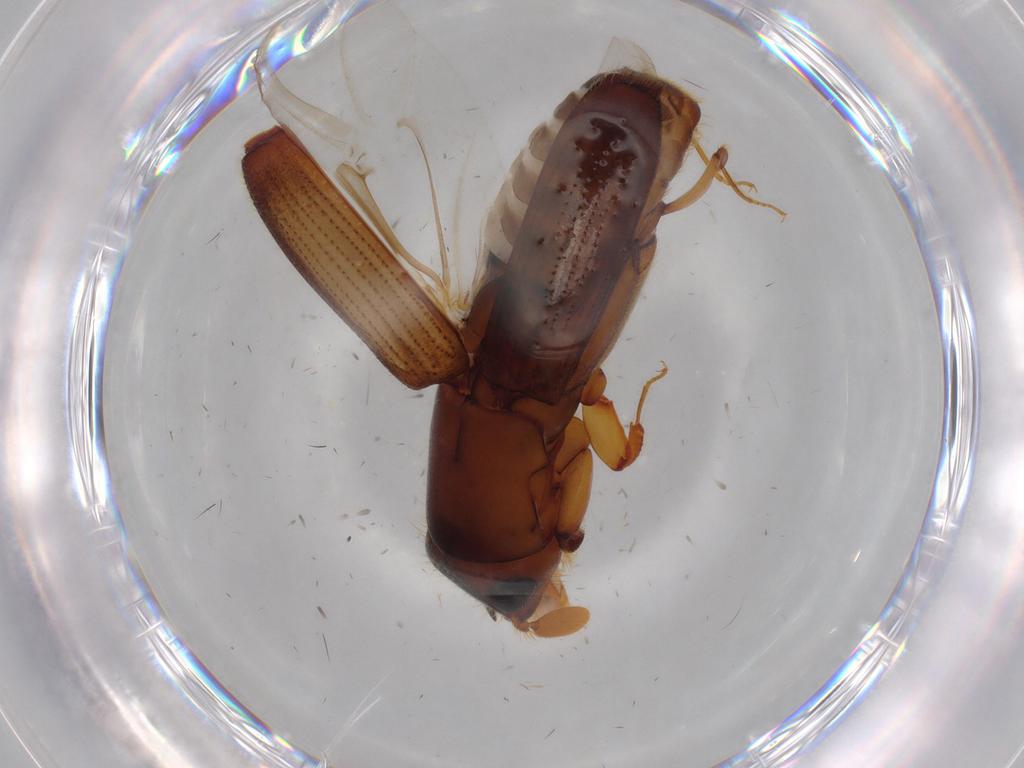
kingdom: Animalia
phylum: Arthropoda
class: Insecta
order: Coleoptera
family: Curculionidae
